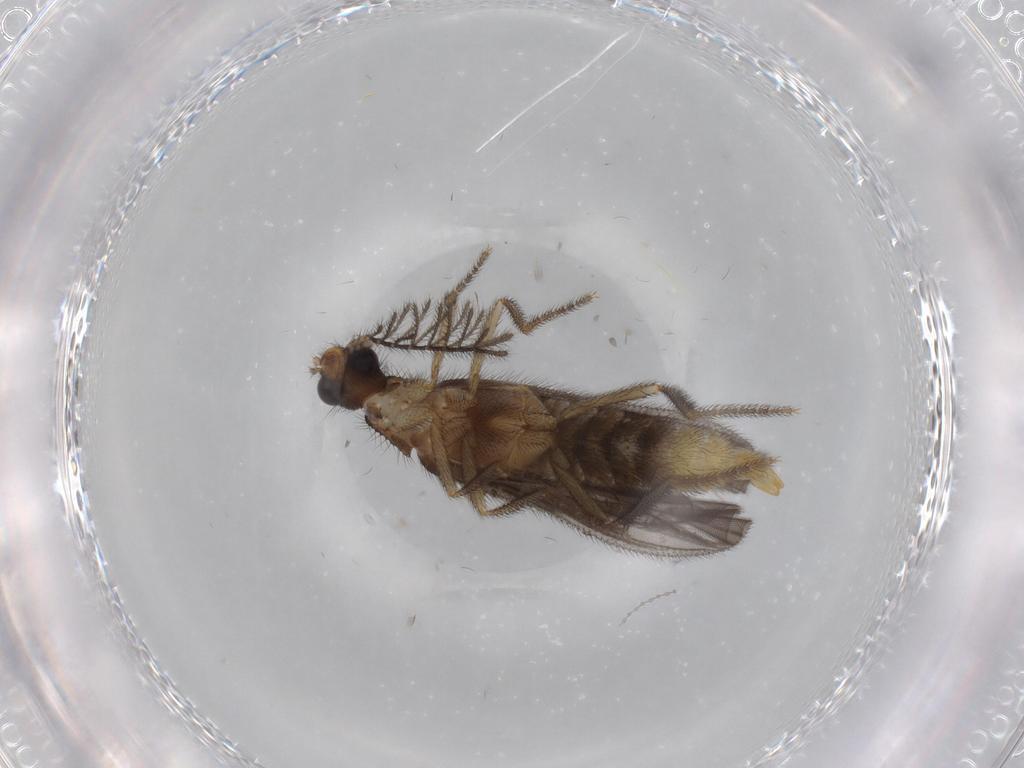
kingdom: Animalia
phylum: Arthropoda
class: Insecta
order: Coleoptera
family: Phengodidae
